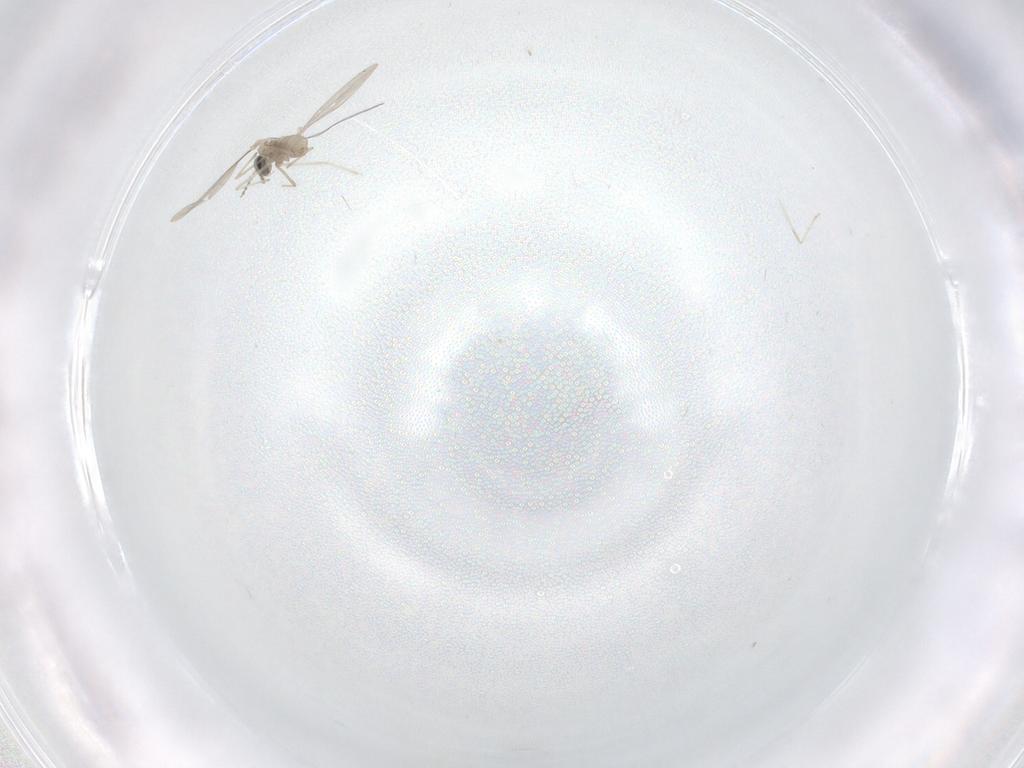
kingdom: Animalia
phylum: Arthropoda
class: Insecta
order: Diptera
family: Cecidomyiidae
